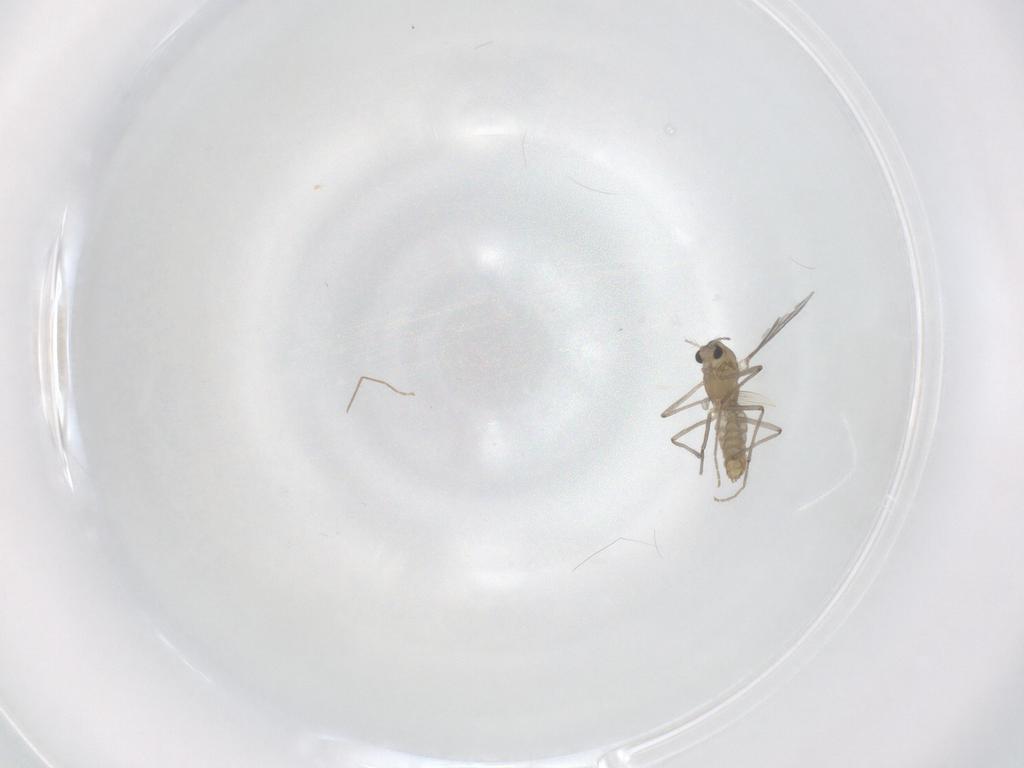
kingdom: Animalia
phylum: Arthropoda
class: Insecta
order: Diptera
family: Chironomidae
